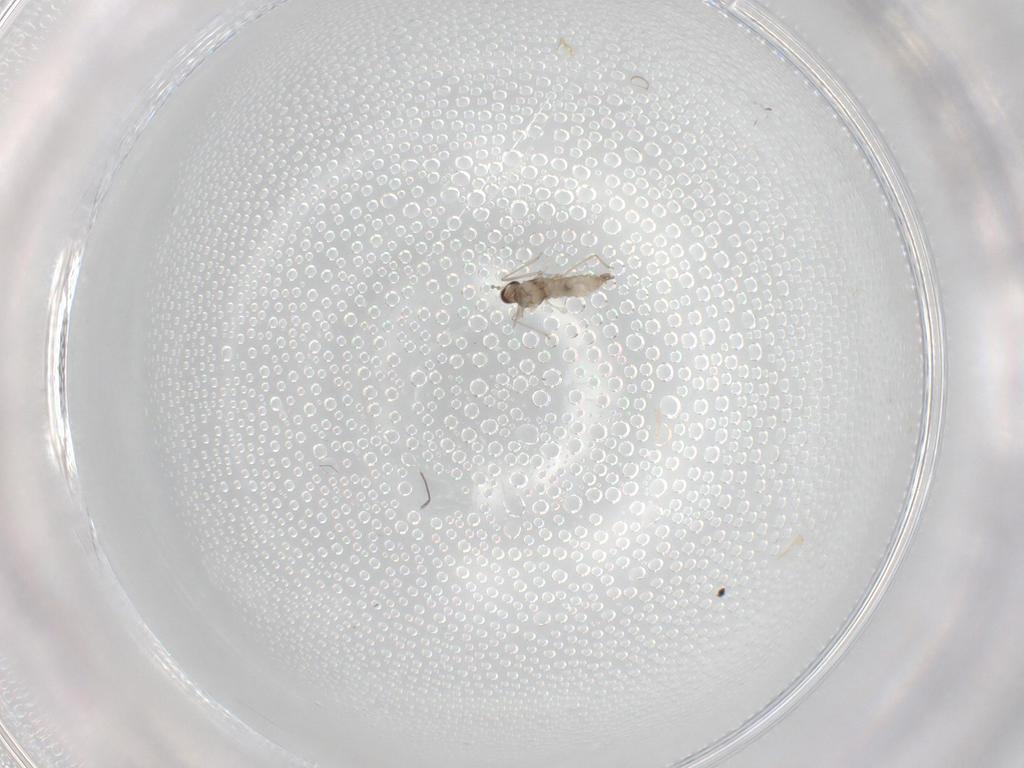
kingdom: Animalia
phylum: Arthropoda
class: Insecta
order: Diptera
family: Cecidomyiidae
